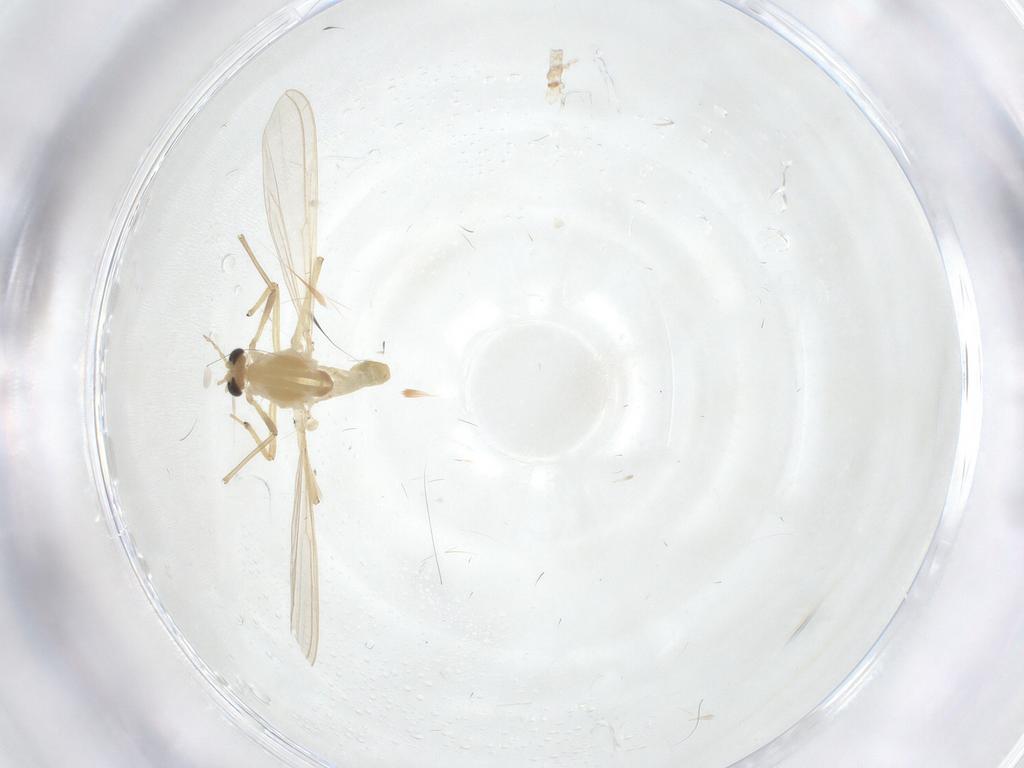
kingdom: Animalia
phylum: Arthropoda
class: Insecta
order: Diptera
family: Chironomidae
